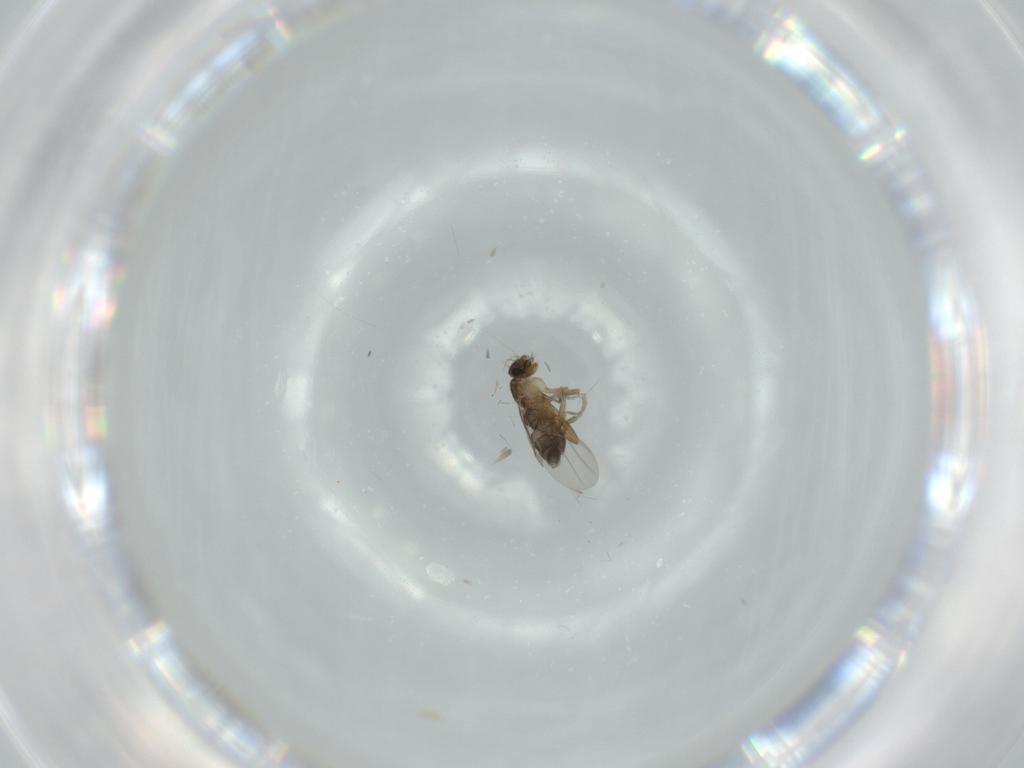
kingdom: Animalia
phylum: Arthropoda
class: Insecta
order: Diptera
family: Phoridae
